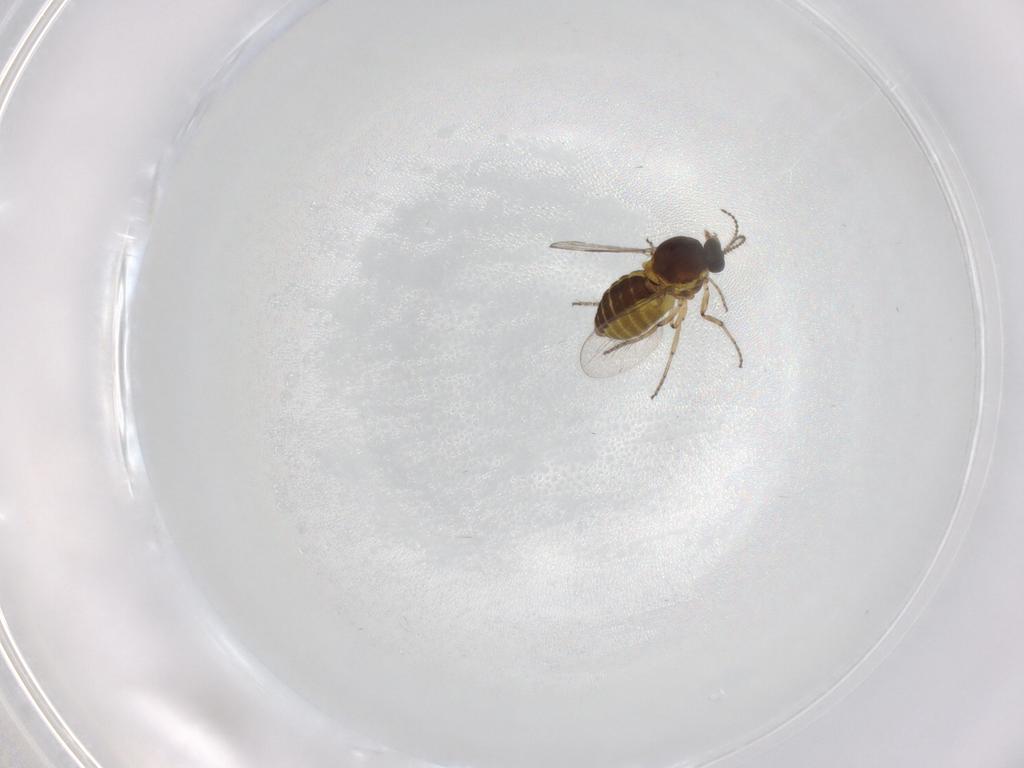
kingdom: Animalia
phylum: Arthropoda
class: Insecta
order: Diptera
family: Ceratopogonidae
